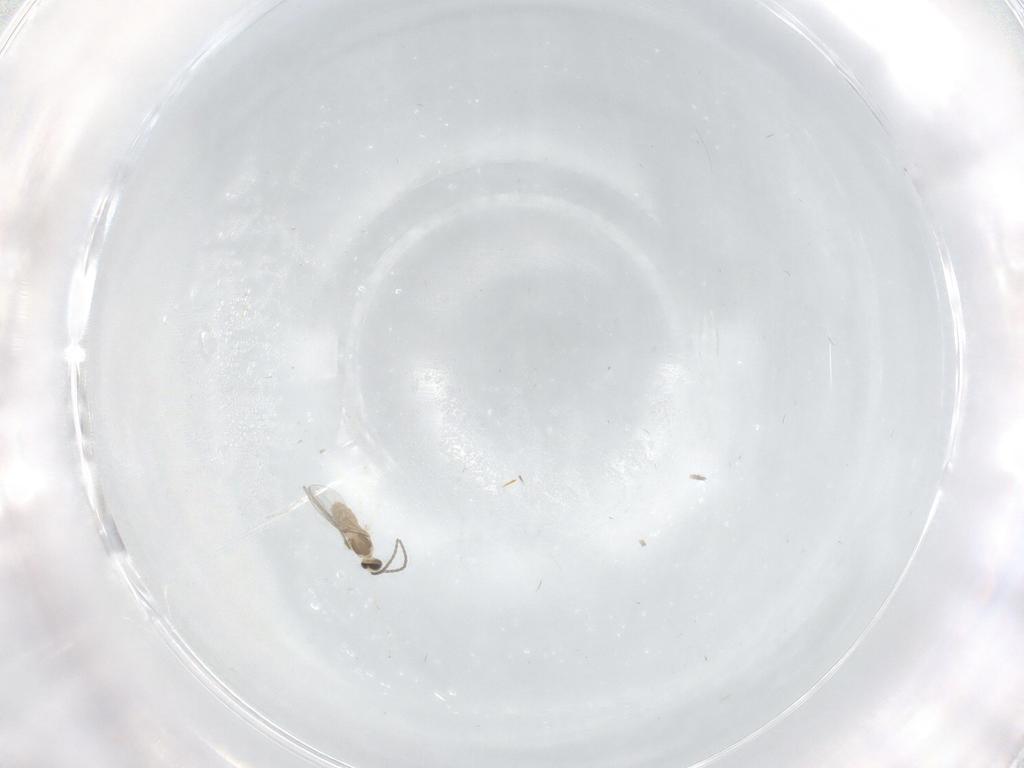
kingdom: Animalia
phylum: Arthropoda
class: Insecta
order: Diptera
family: Cecidomyiidae
